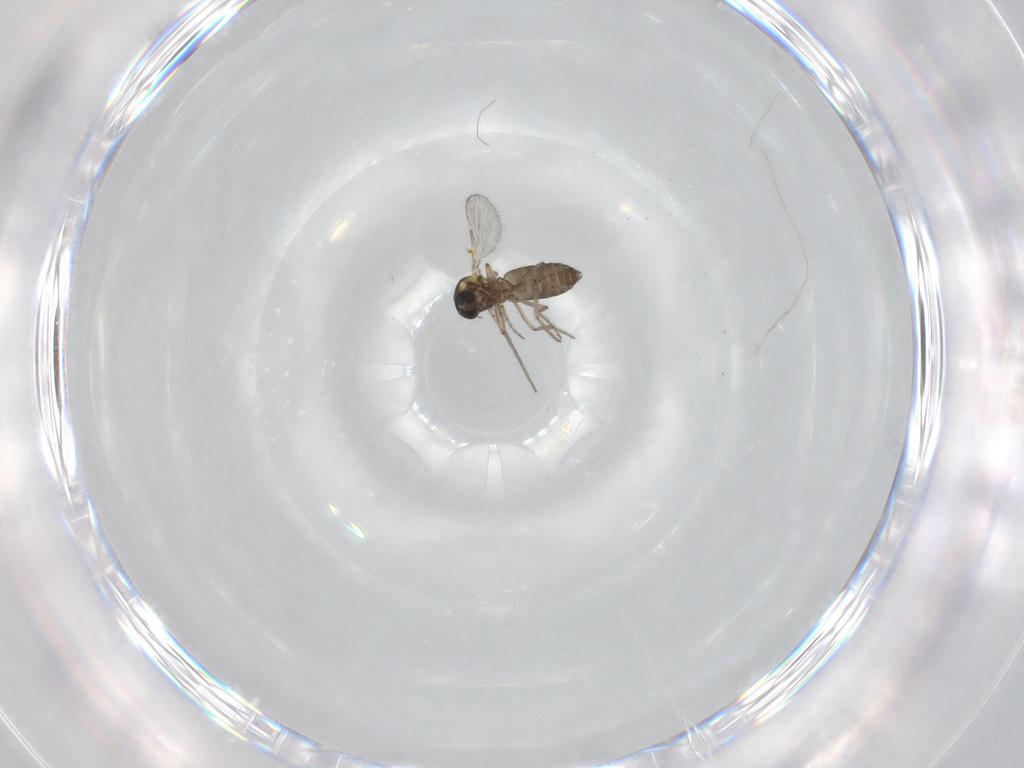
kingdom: Animalia
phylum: Arthropoda
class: Insecta
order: Diptera
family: Ceratopogonidae
